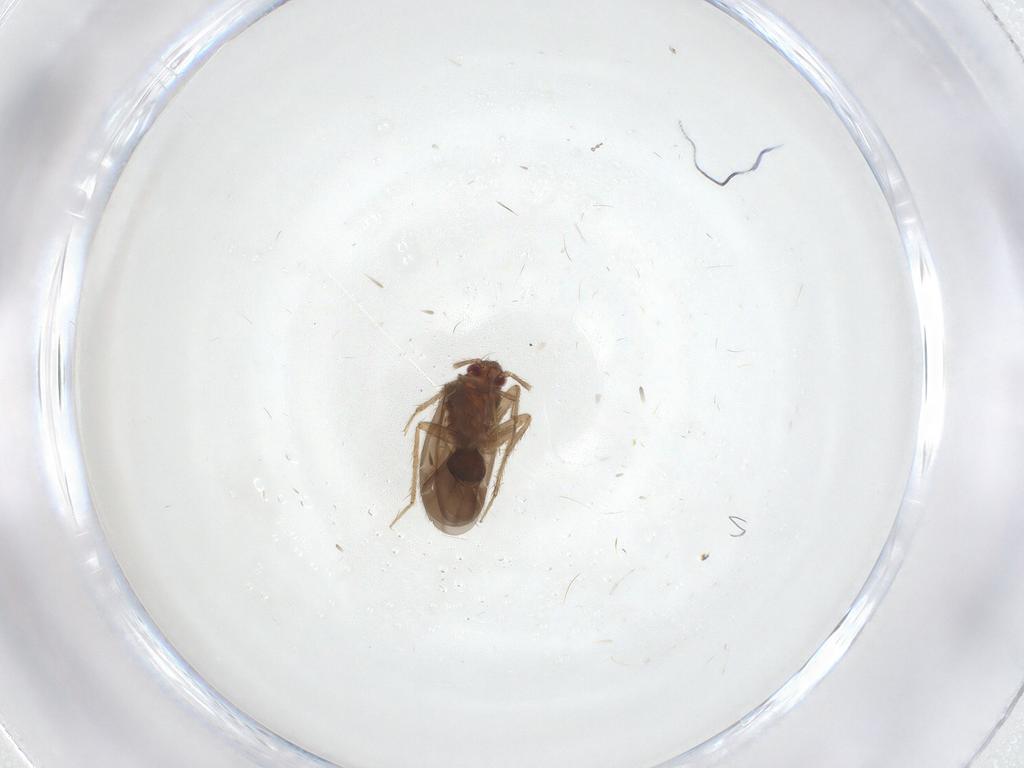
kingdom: Animalia
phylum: Arthropoda
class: Insecta
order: Hemiptera
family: Ceratocombidae
